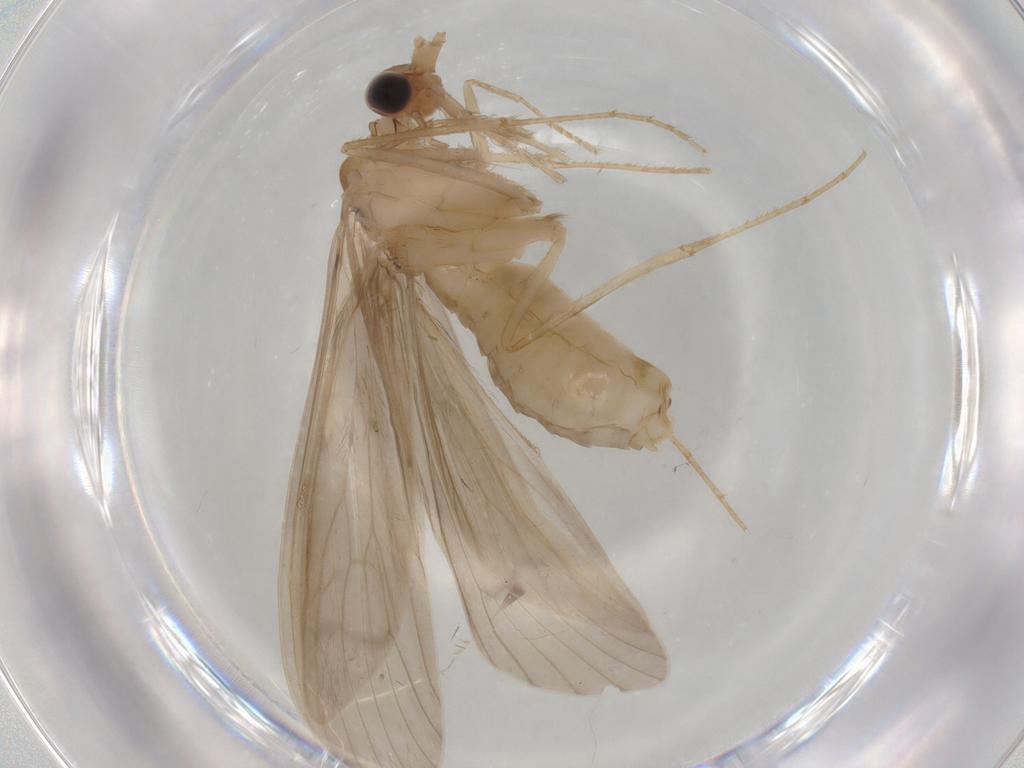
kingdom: Animalia
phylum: Arthropoda
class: Insecta
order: Trichoptera
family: Leptoceridae
